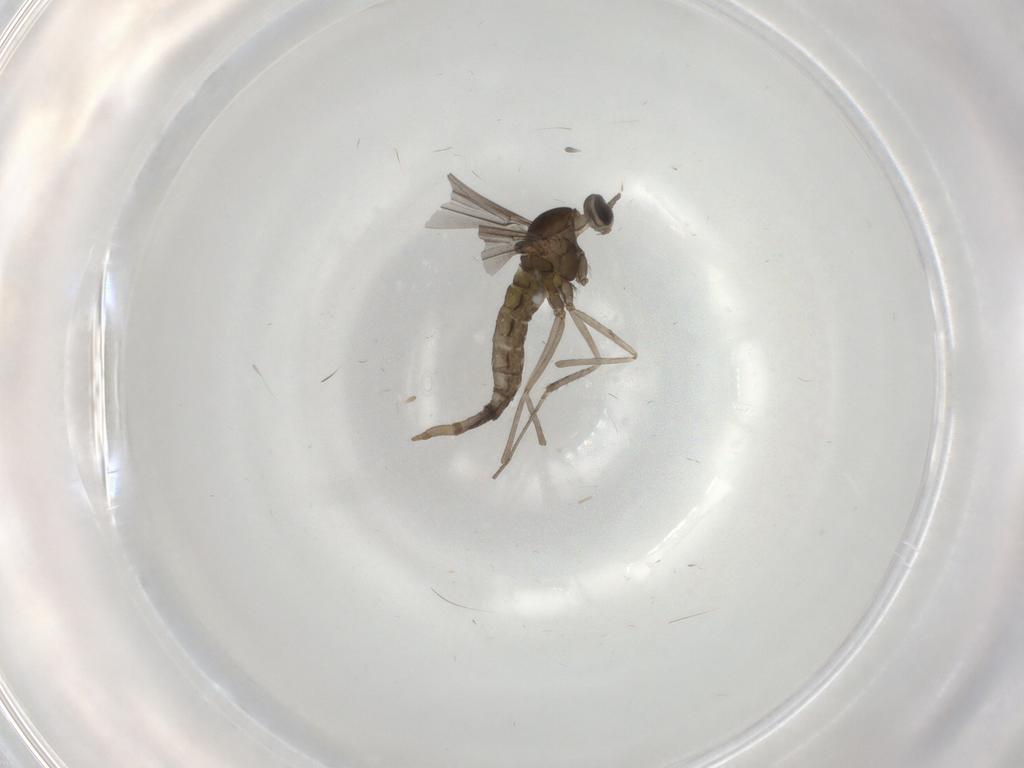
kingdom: Animalia
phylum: Arthropoda
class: Insecta
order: Diptera
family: Cecidomyiidae
